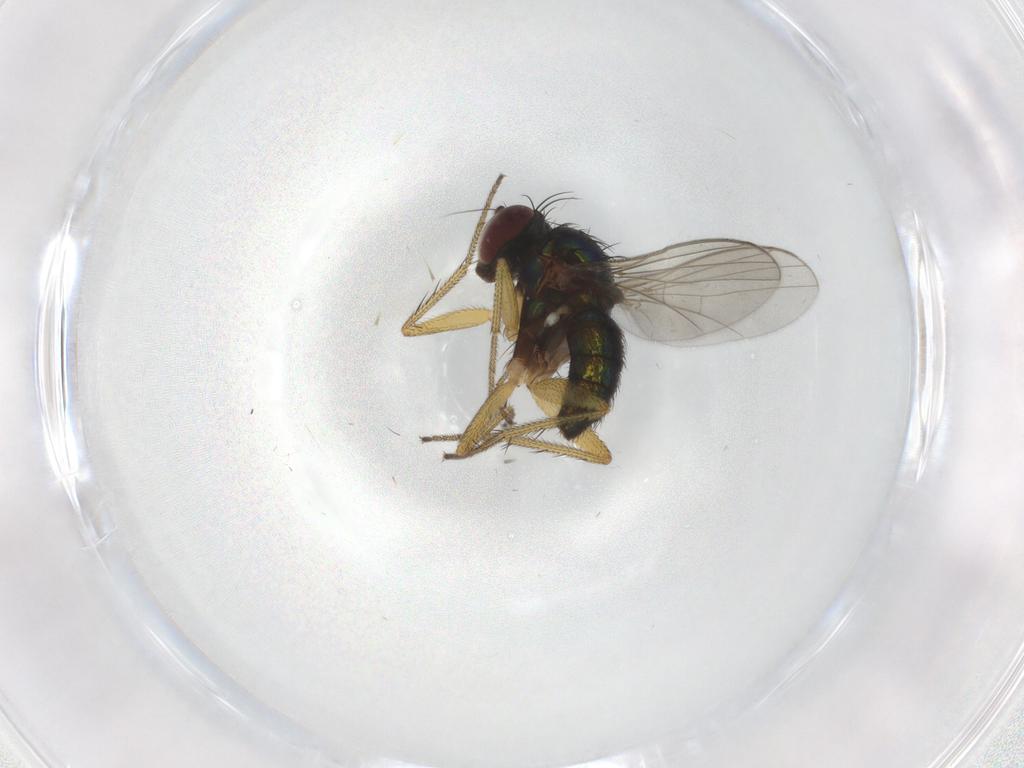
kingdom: Animalia
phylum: Arthropoda
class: Insecta
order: Diptera
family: Dolichopodidae
